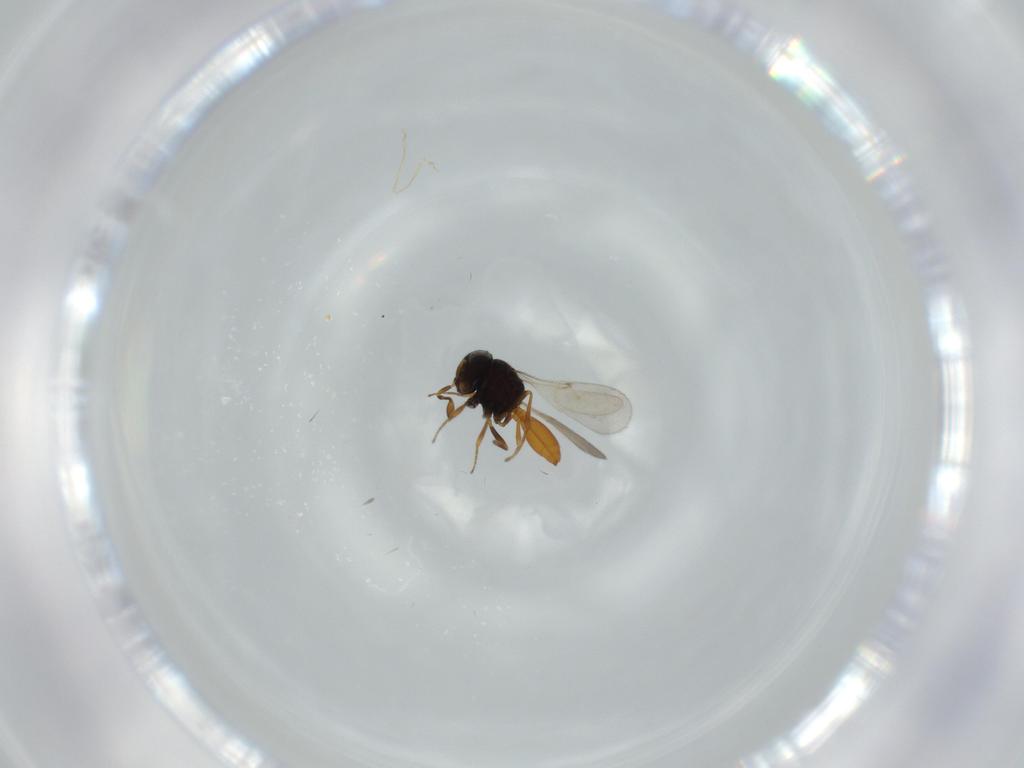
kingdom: Animalia
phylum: Arthropoda
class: Insecta
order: Hymenoptera
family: Scelionidae
